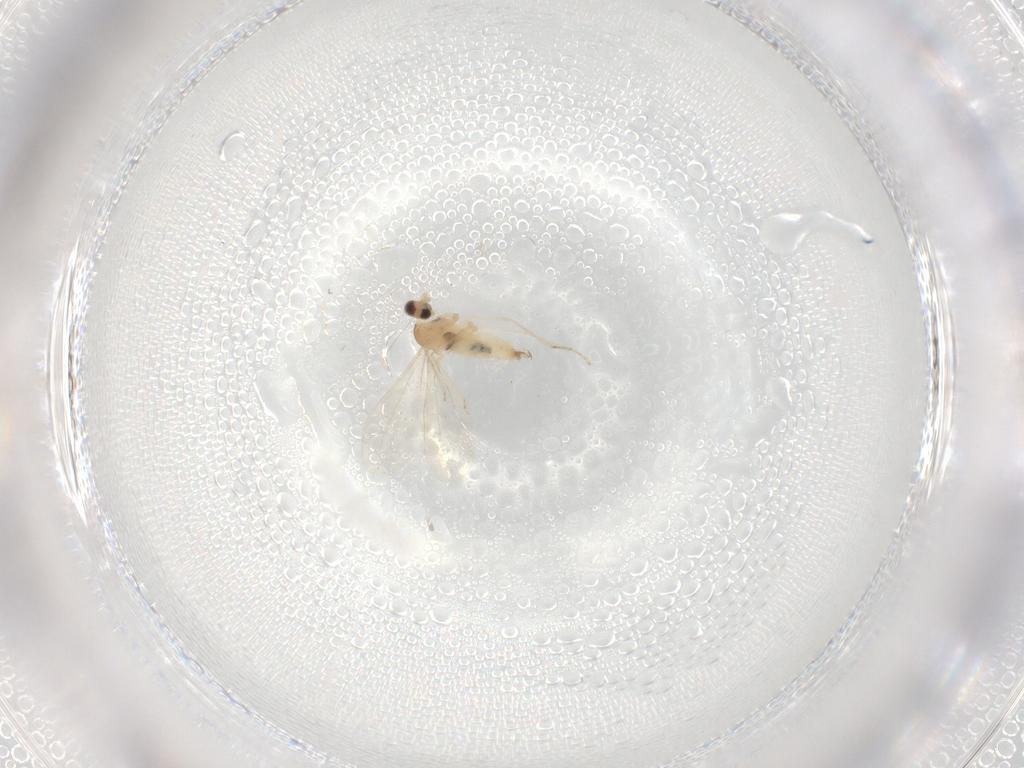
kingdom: Animalia
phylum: Arthropoda
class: Insecta
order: Diptera
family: Cecidomyiidae
